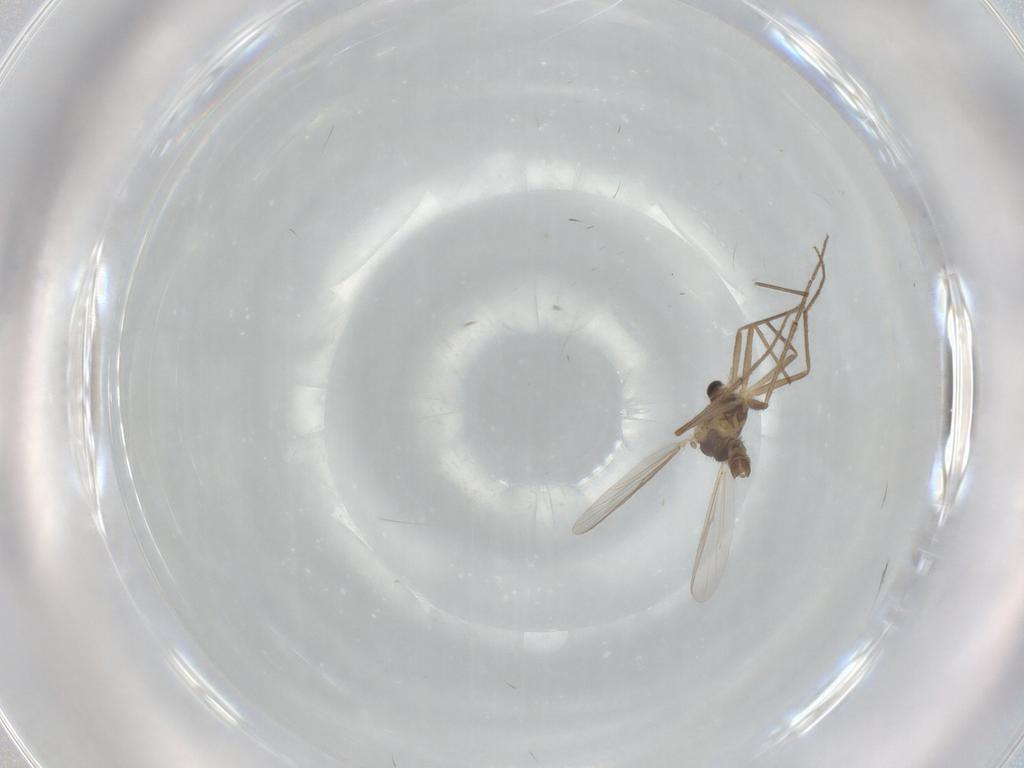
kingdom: Animalia
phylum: Arthropoda
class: Insecta
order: Diptera
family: Chironomidae
